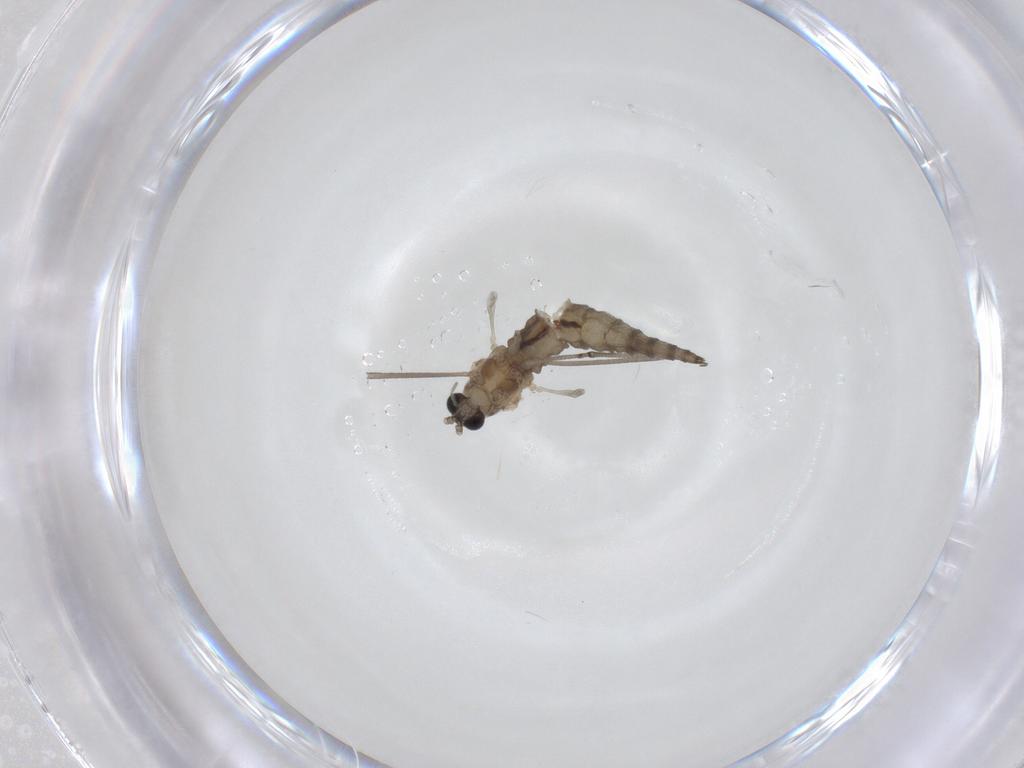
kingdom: Animalia
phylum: Arthropoda
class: Insecta
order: Diptera
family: Cecidomyiidae
